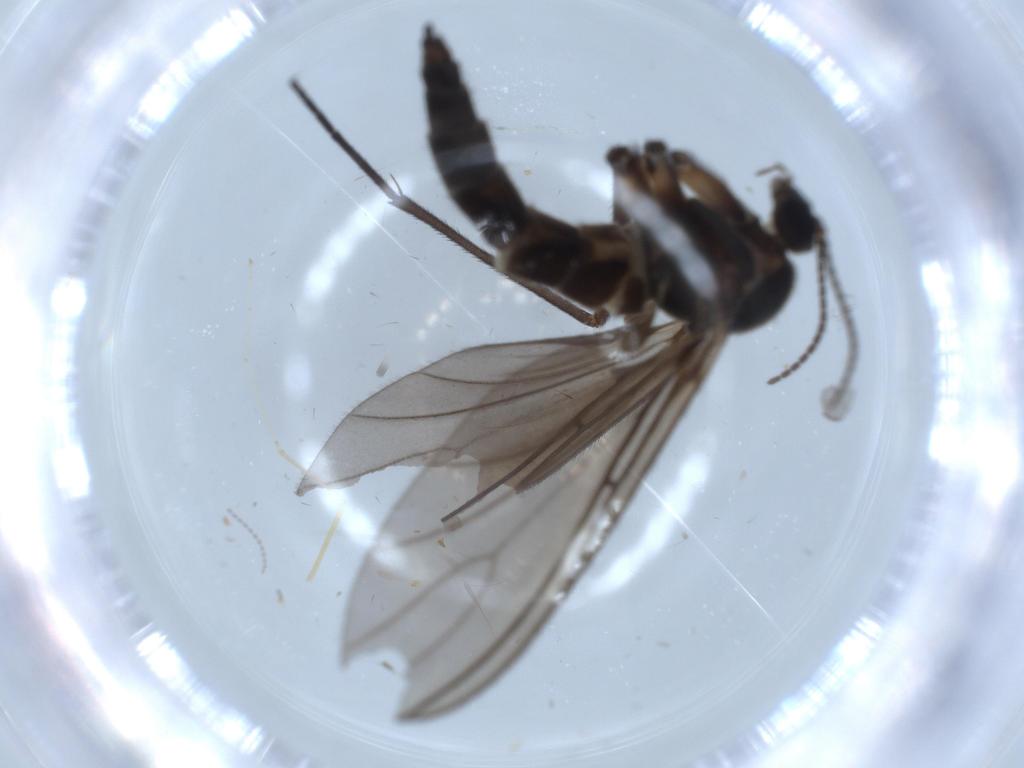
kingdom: Animalia
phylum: Arthropoda
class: Insecta
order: Diptera
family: Sciaridae
